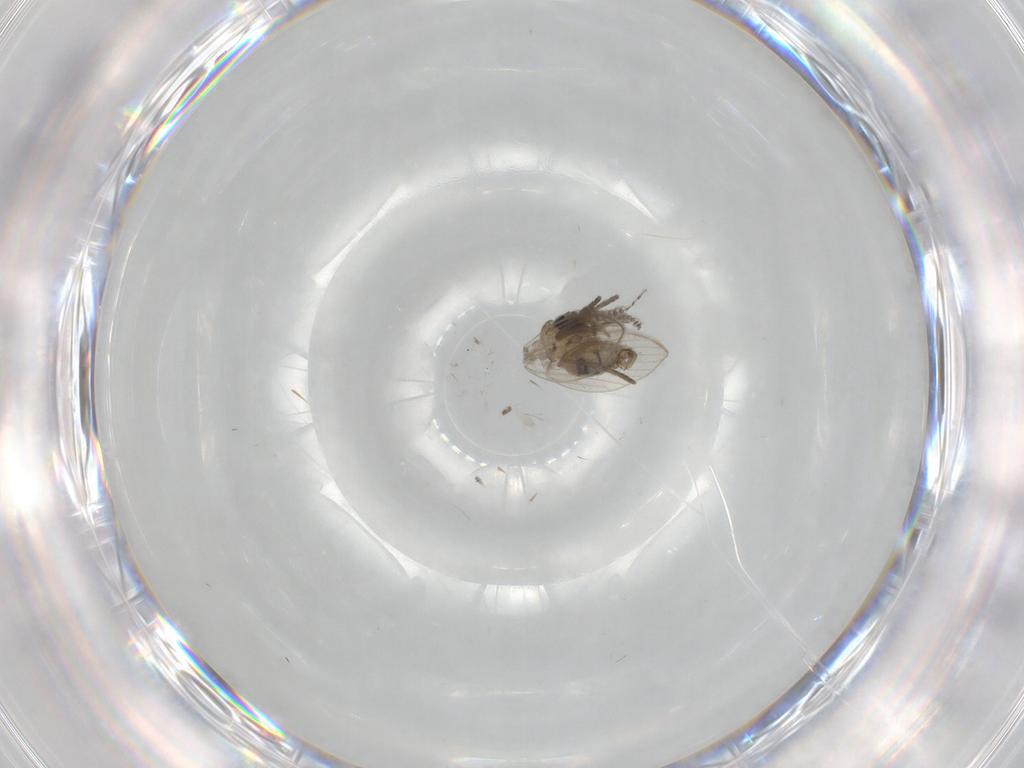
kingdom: Animalia
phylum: Arthropoda
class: Insecta
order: Diptera
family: Psychodidae
